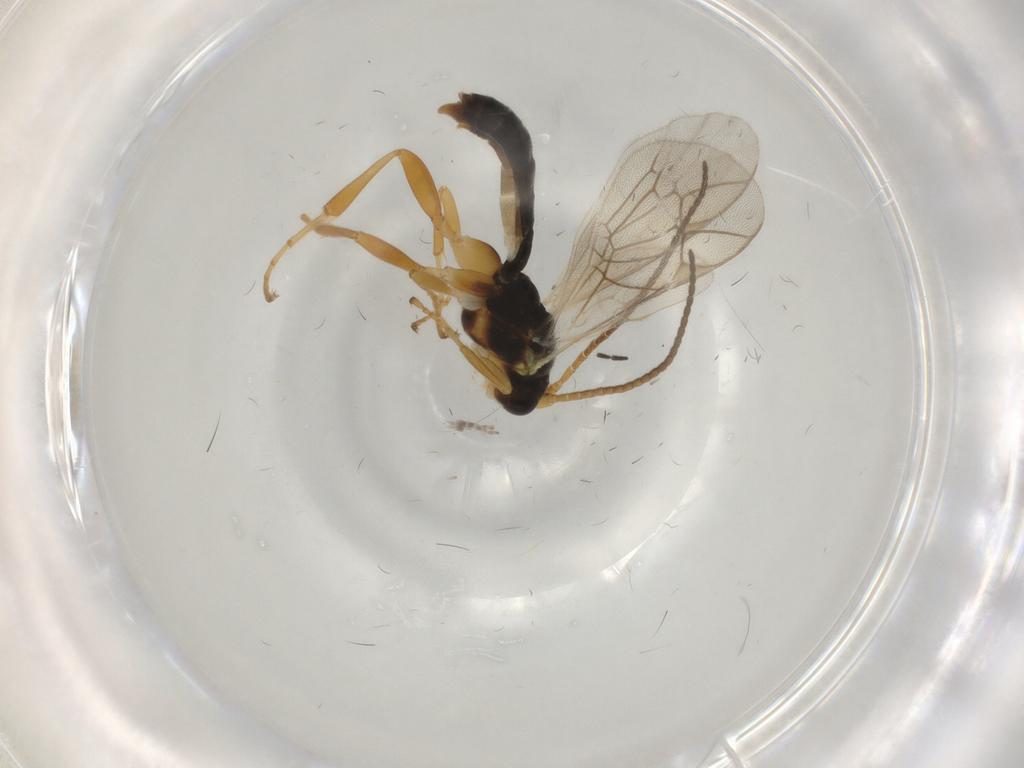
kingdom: Animalia
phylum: Arthropoda
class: Insecta
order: Hymenoptera
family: Ichneumonidae
